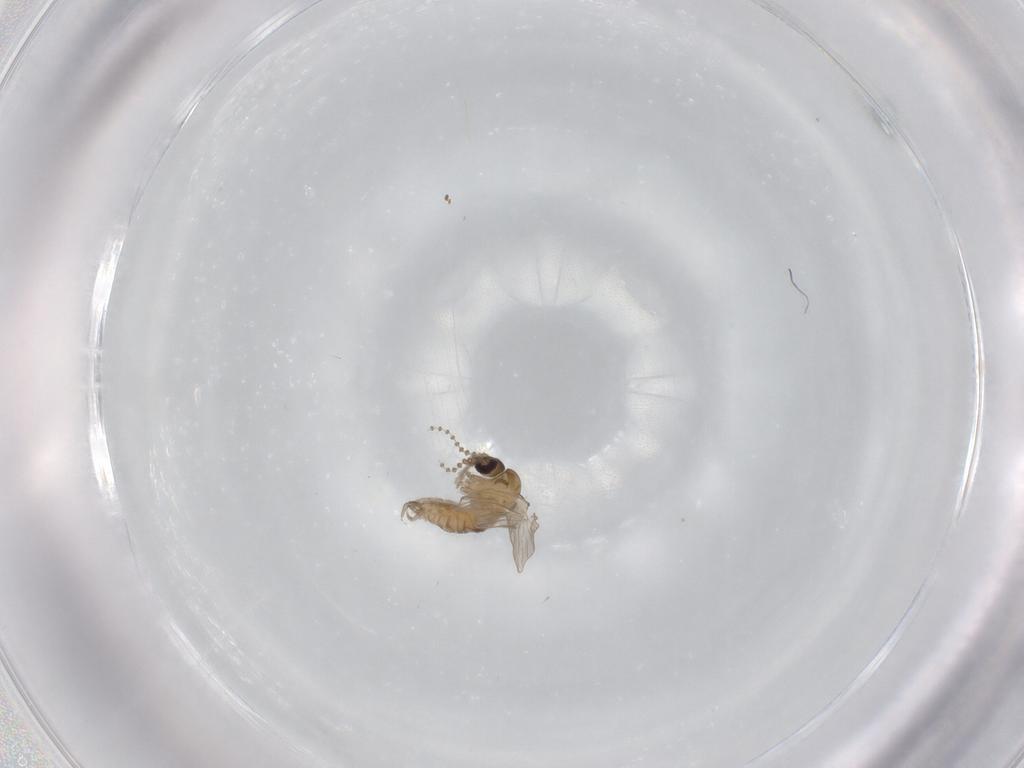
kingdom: Animalia
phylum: Arthropoda
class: Insecta
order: Diptera
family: Psychodidae
